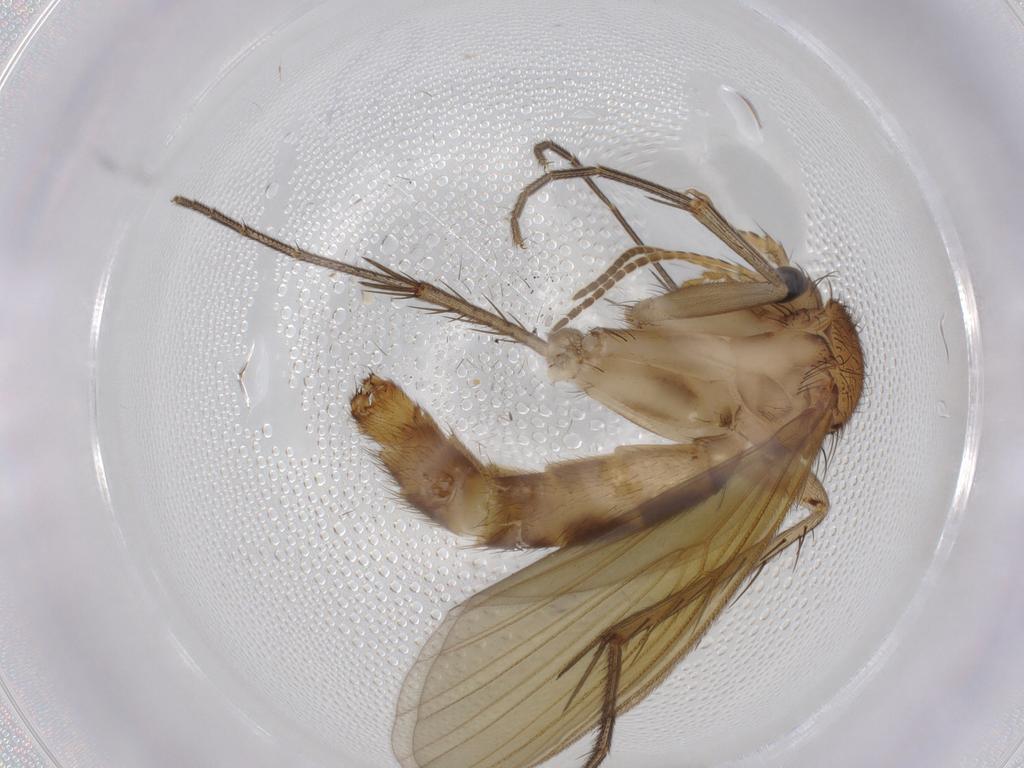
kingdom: Animalia
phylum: Arthropoda
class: Insecta
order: Diptera
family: Mycetophilidae
